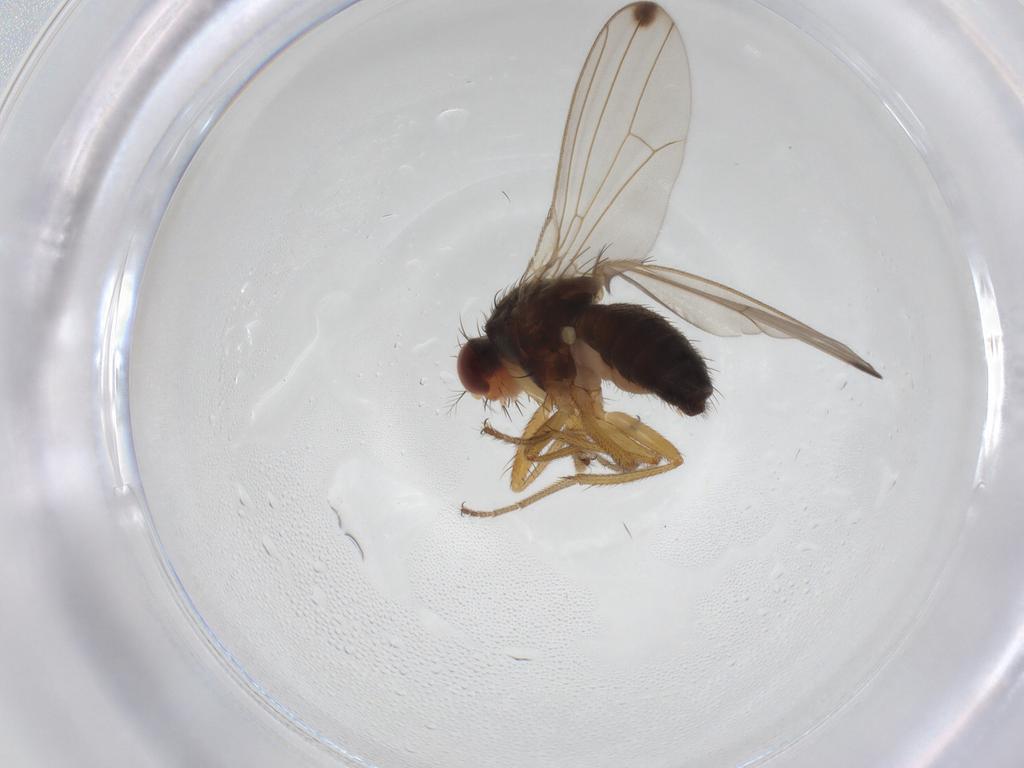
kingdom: Animalia
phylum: Arthropoda
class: Insecta
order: Diptera
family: Drosophilidae
